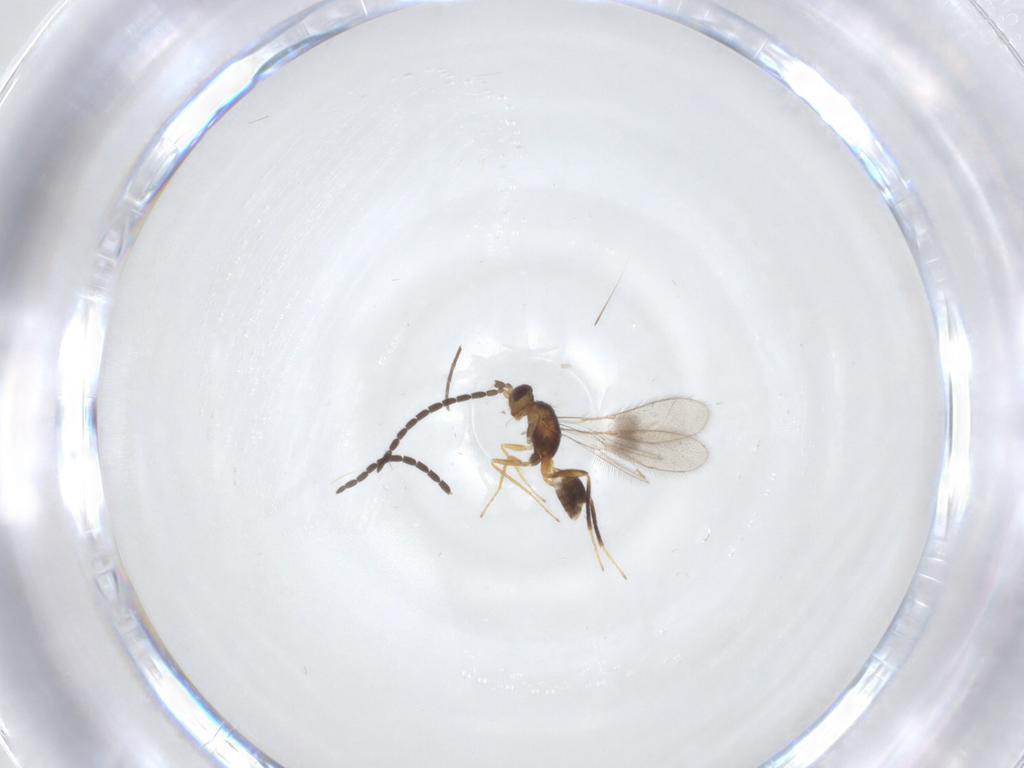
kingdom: Animalia
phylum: Arthropoda
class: Insecta
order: Hymenoptera
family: Mymaridae
